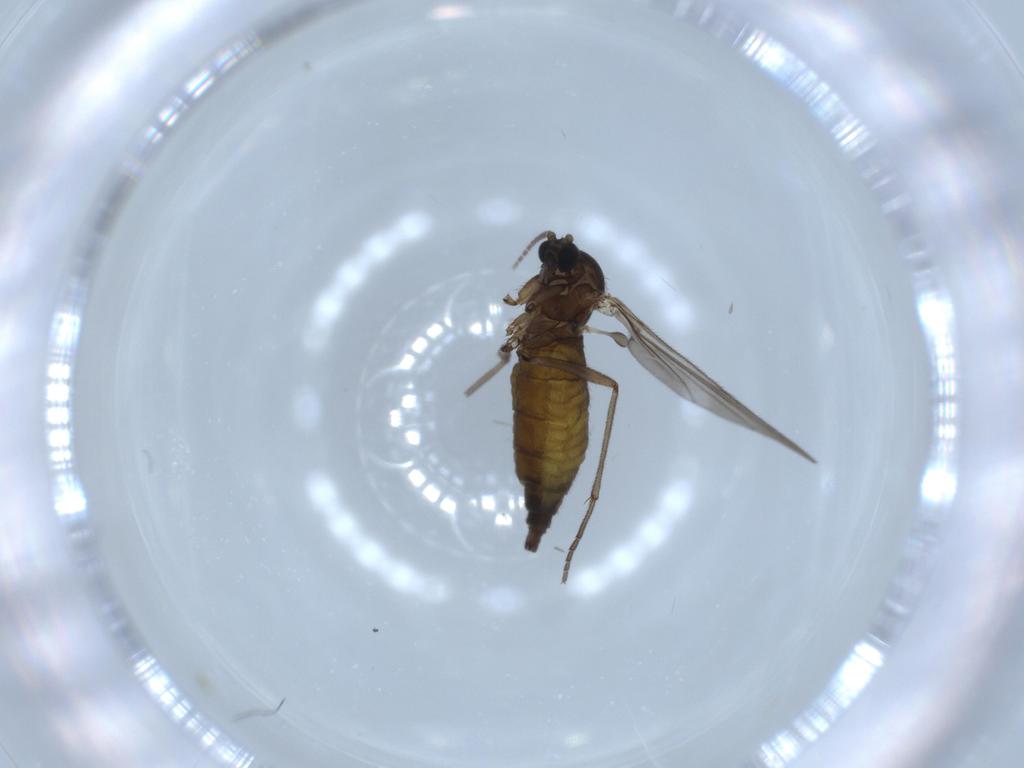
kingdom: Animalia
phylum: Arthropoda
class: Insecta
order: Diptera
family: Sciaridae
